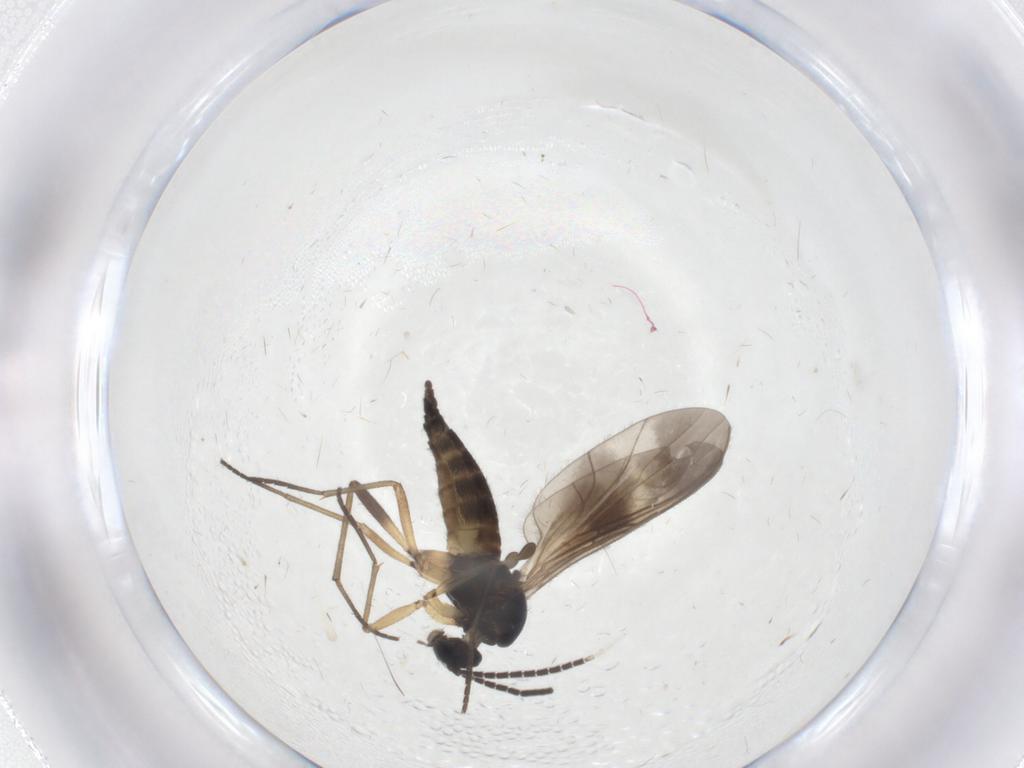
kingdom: Animalia
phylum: Arthropoda
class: Insecta
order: Diptera
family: Sciaridae
